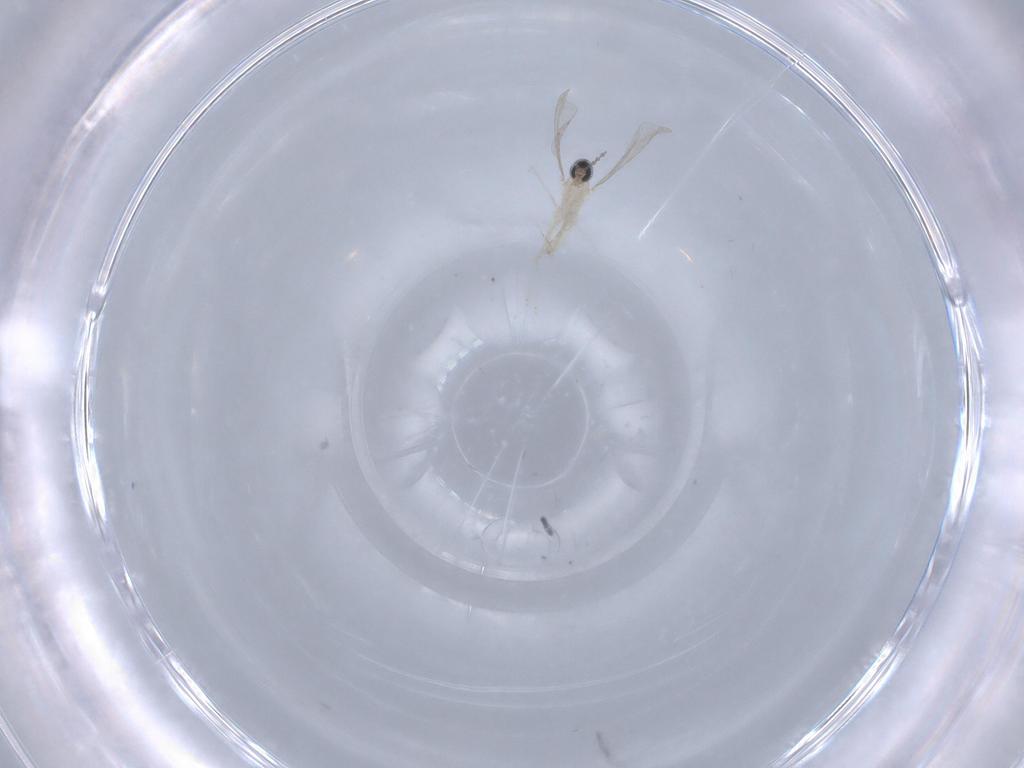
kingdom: Animalia
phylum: Arthropoda
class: Insecta
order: Diptera
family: Cecidomyiidae
